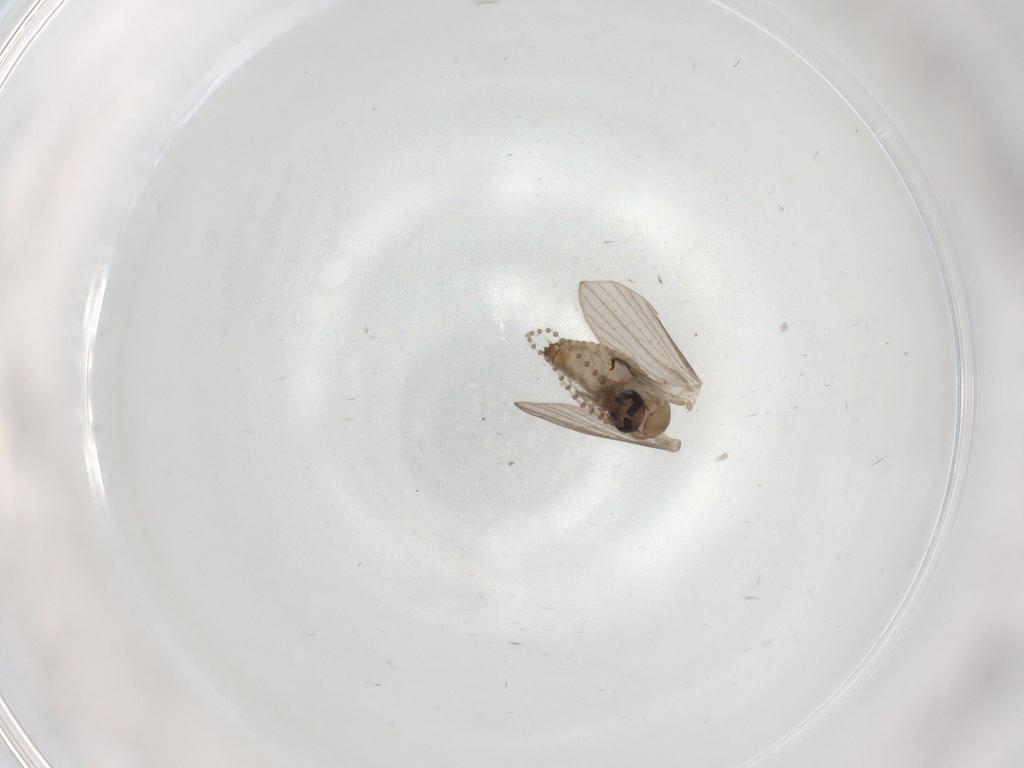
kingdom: Animalia
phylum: Arthropoda
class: Insecta
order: Diptera
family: Psychodidae
